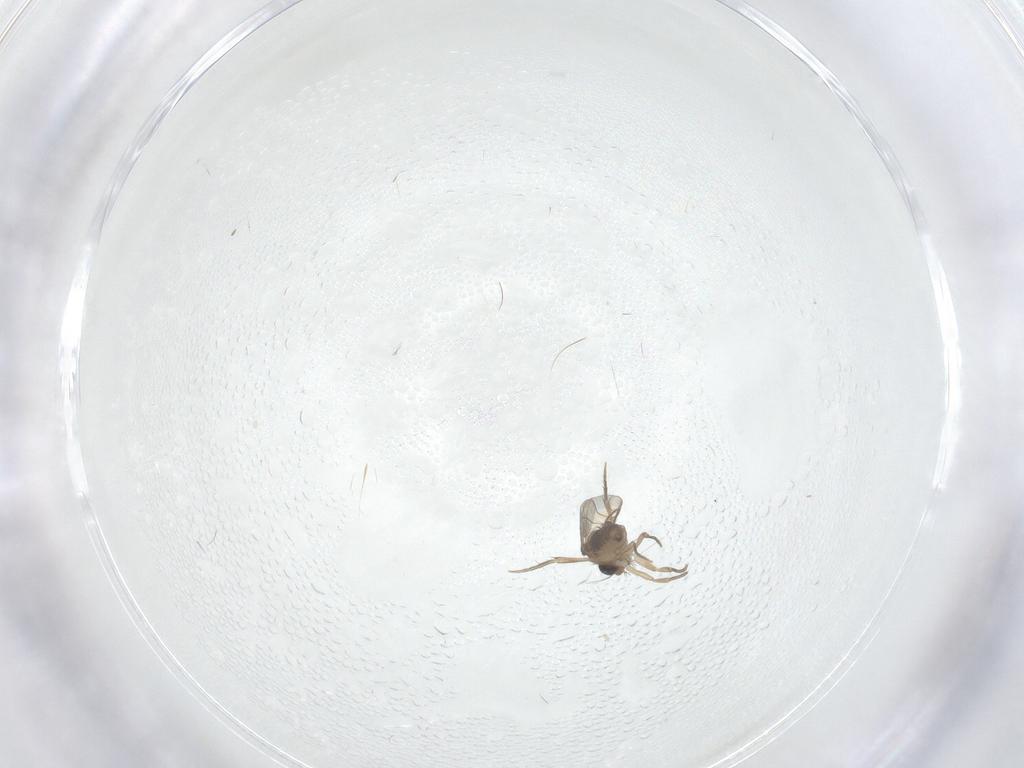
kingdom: Animalia
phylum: Arthropoda
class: Insecta
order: Diptera
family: Phoridae
